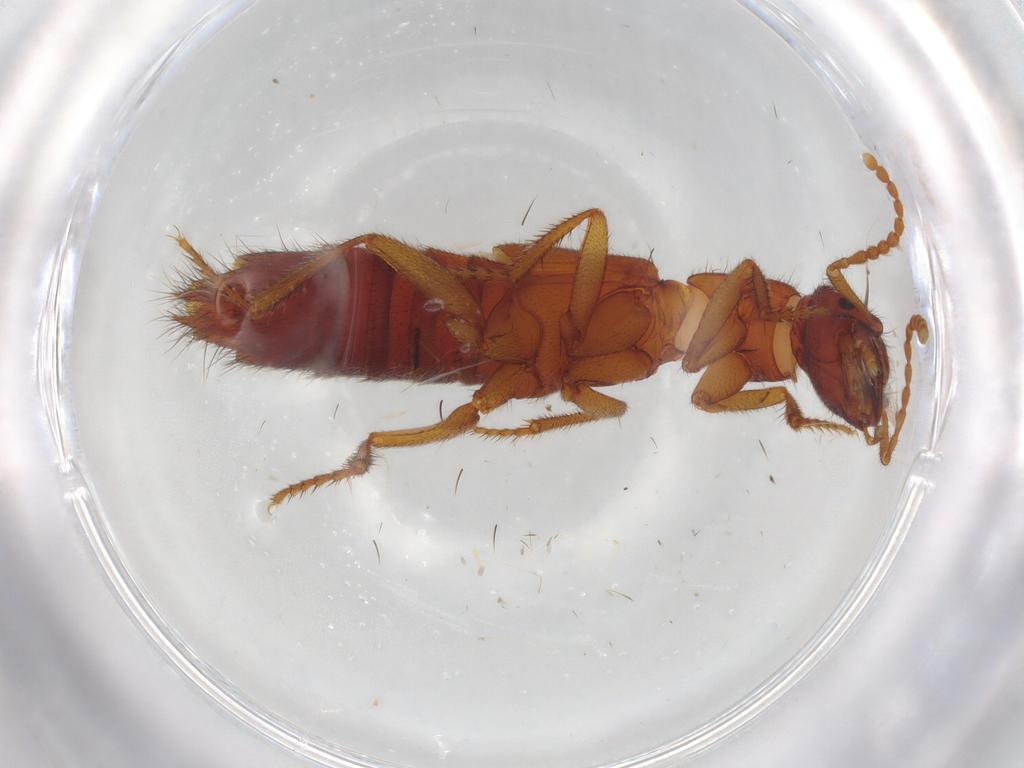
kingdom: Animalia
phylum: Arthropoda
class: Insecta
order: Coleoptera
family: Staphylinidae
